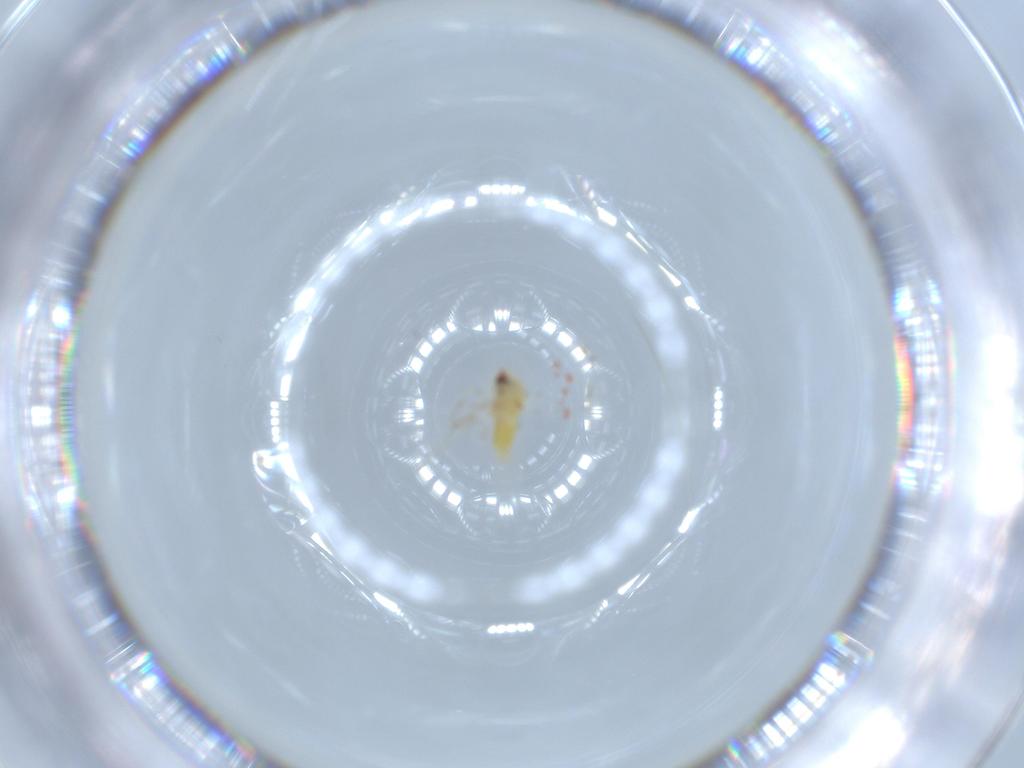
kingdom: Animalia
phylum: Arthropoda
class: Insecta
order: Hemiptera
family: Aleyrodidae
